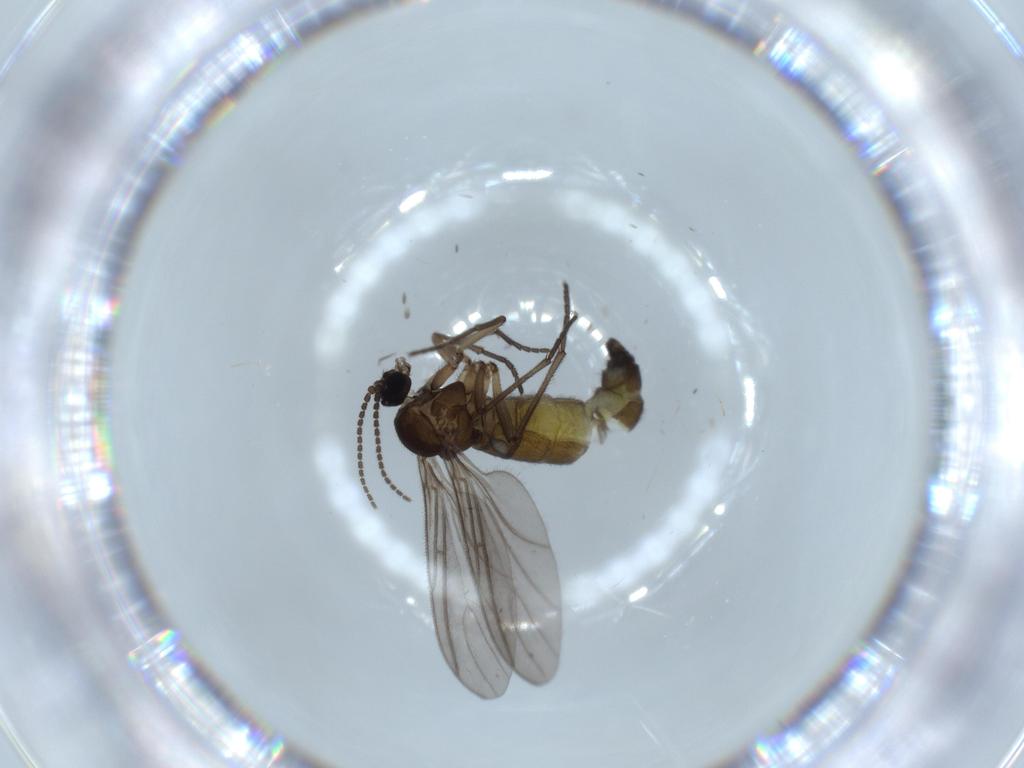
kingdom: Animalia
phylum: Arthropoda
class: Insecta
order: Diptera
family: Sciaridae
